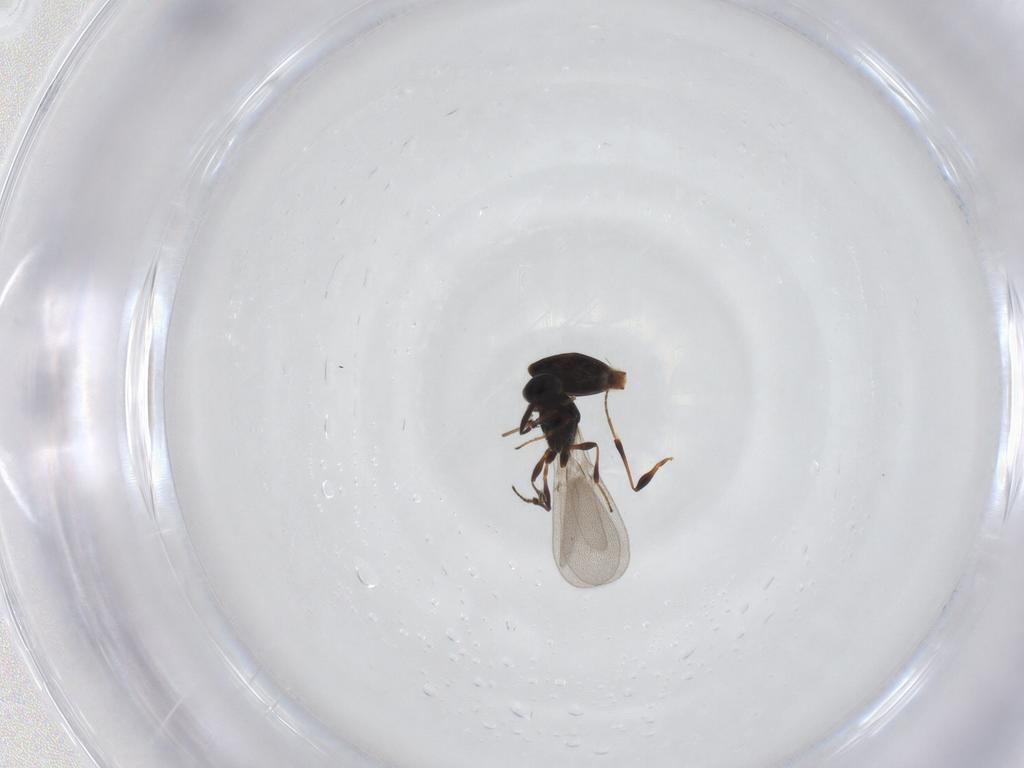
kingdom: Animalia
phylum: Arthropoda
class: Insecta
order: Hymenoptera
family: Platygastridae
